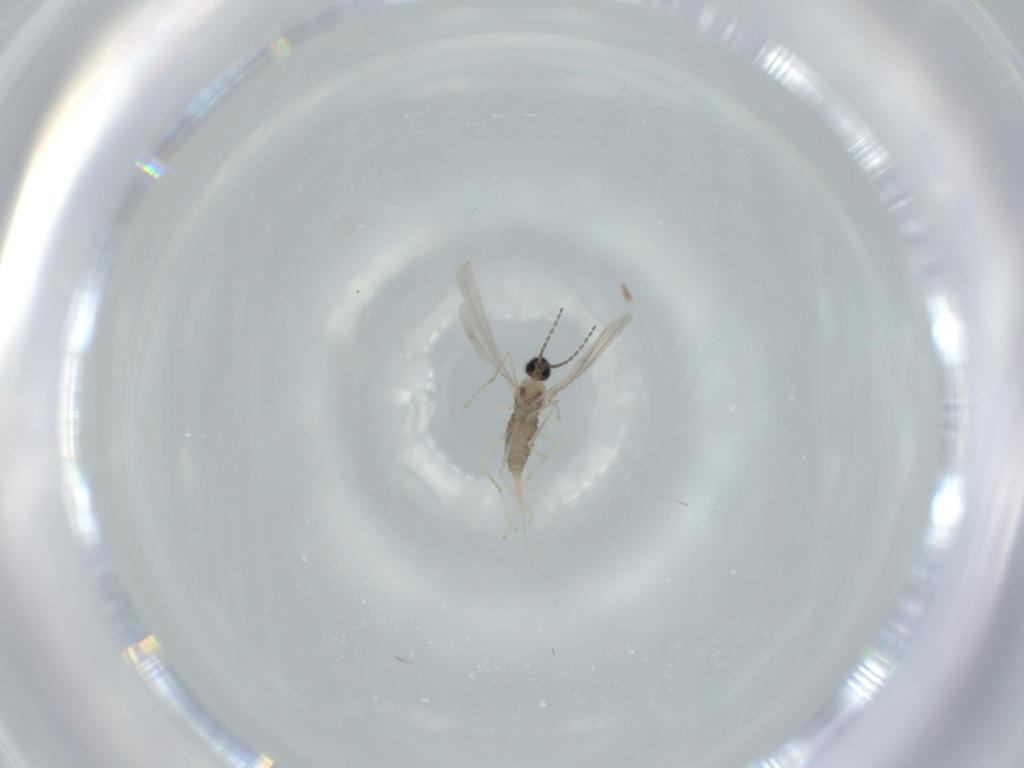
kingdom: Animalia
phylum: Arthropoda
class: Insecta
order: Diptera
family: Cecidomyiidae
